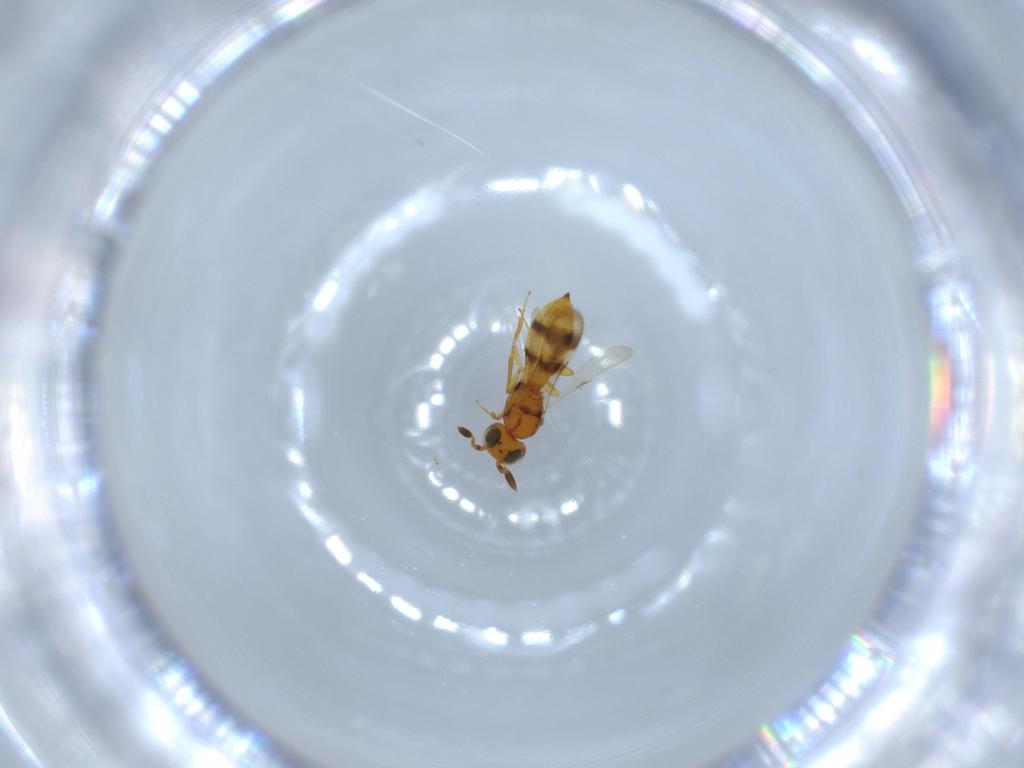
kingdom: Animalia
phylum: Arthropoda
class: Insecta
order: Hymenoptera
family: Scelionidae
